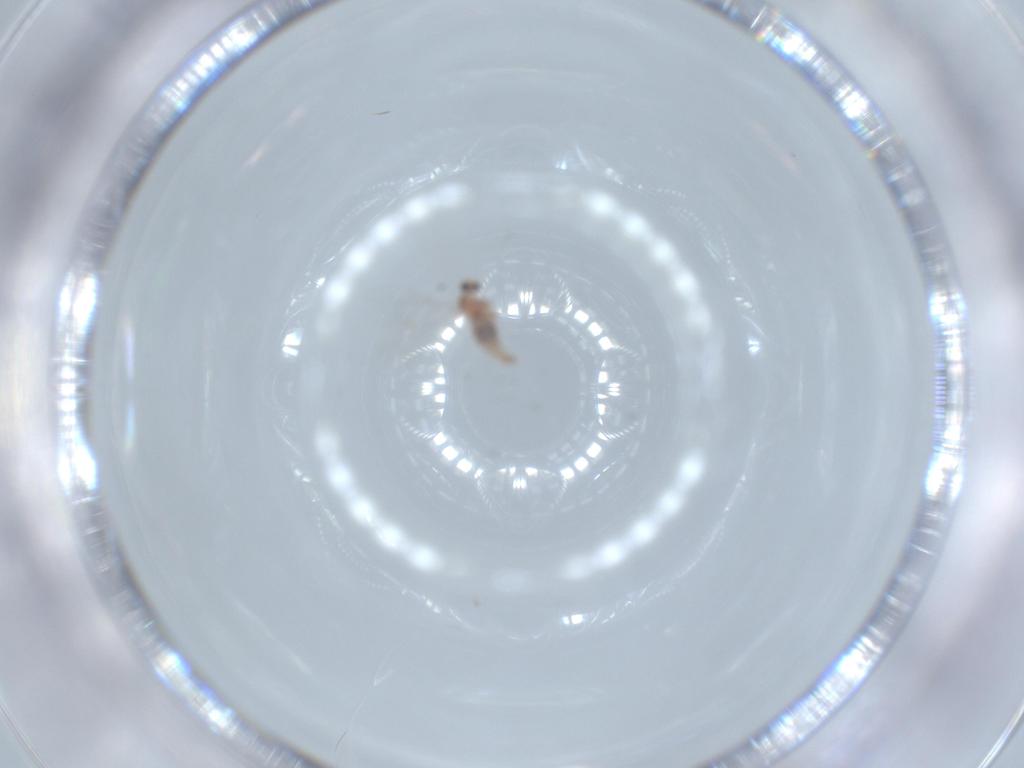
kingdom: Animalia
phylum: Arthropoda
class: Insecta
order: Diptera
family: Cecidomyiidae
